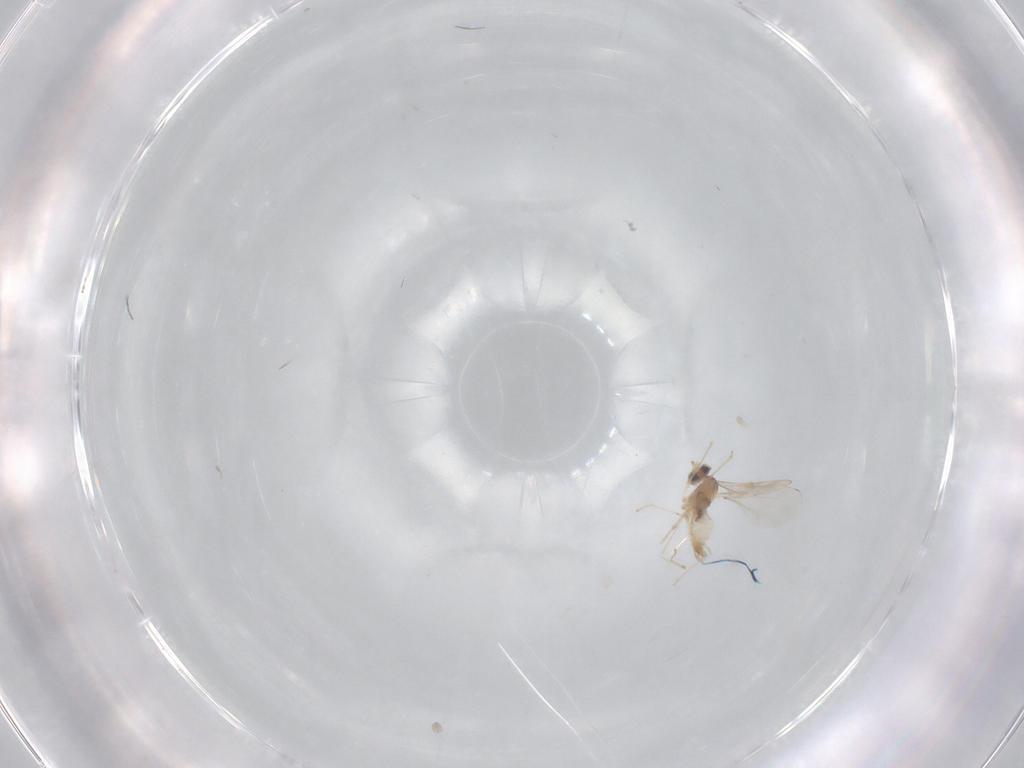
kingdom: Animalia
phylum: Arthropoda
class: Insecta
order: Diptera
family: Cecidomyiidae
